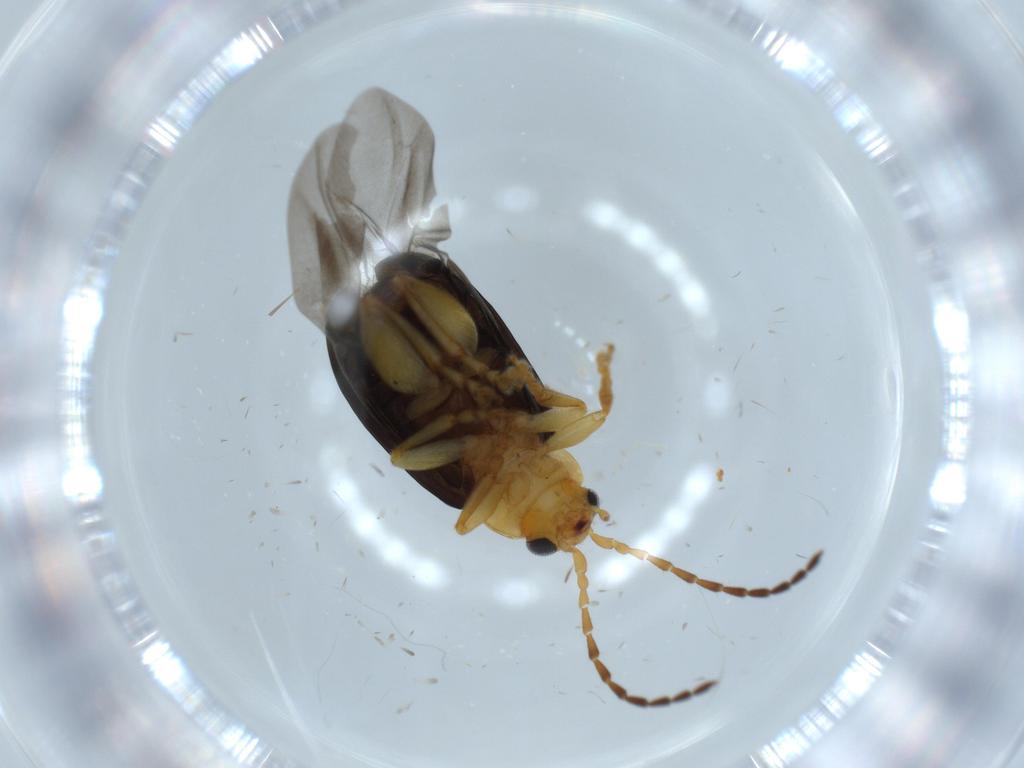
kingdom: Animalia
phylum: Arthropoda
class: Insecta
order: Coleoptera
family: Chrysomelidae
